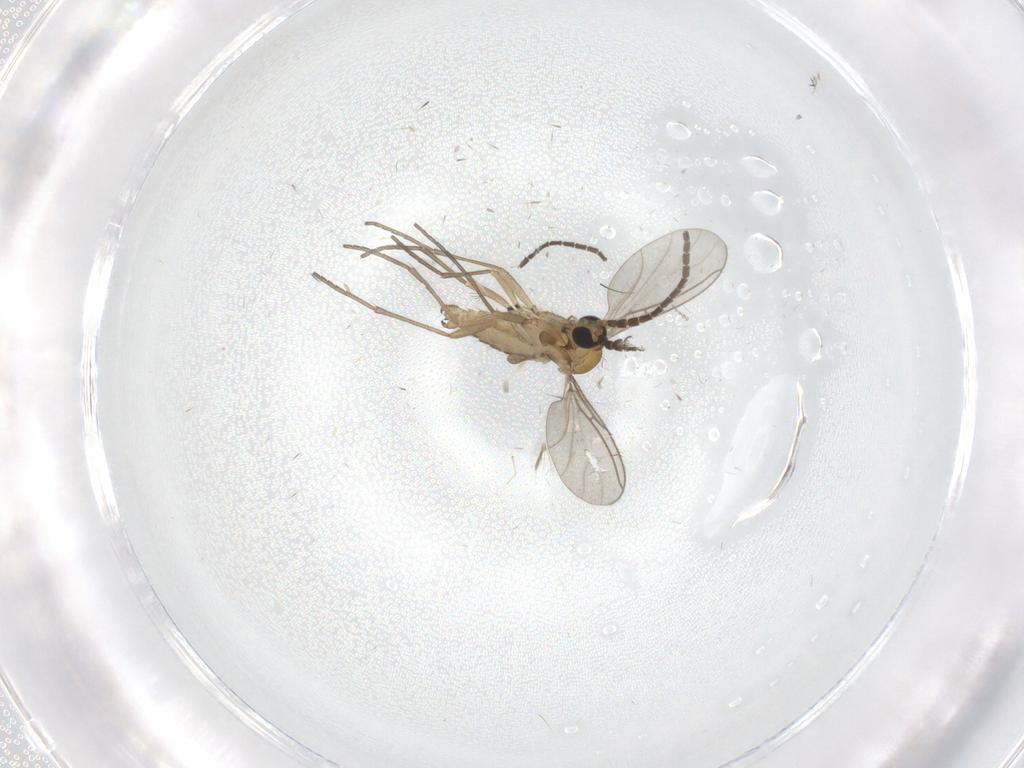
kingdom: Animalia
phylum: Arthropoda
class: Insecta
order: Diptera
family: Sciaridae
